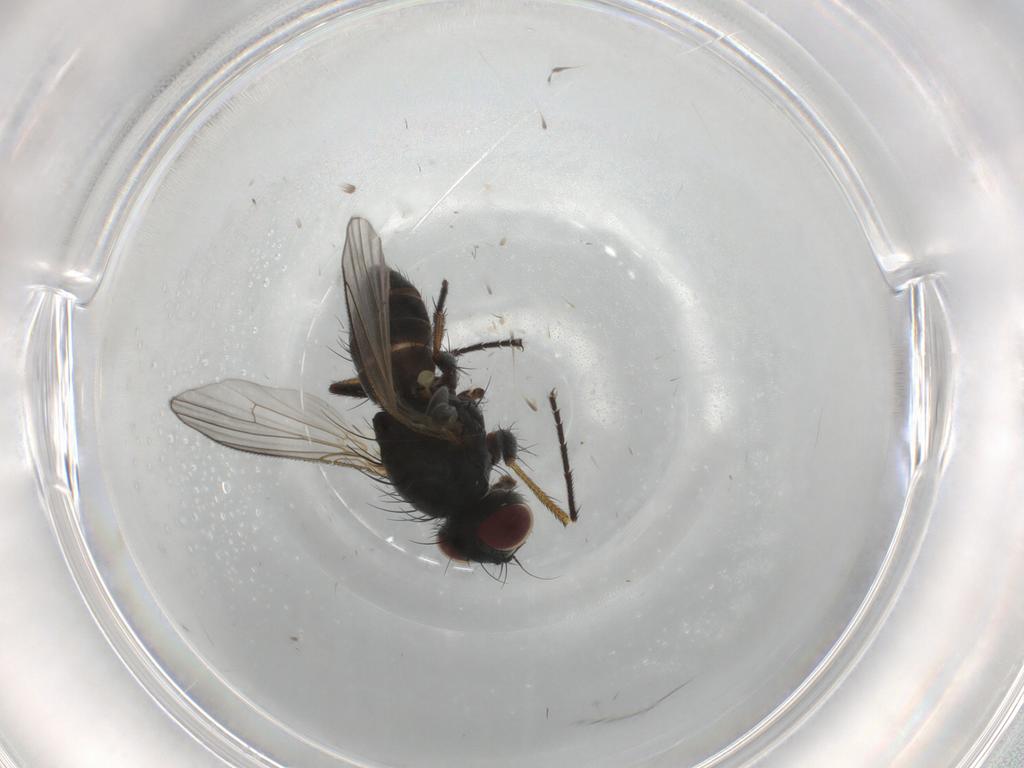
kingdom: Animalia
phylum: Arthropoda
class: Insecta
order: Diptera
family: Muscidae
